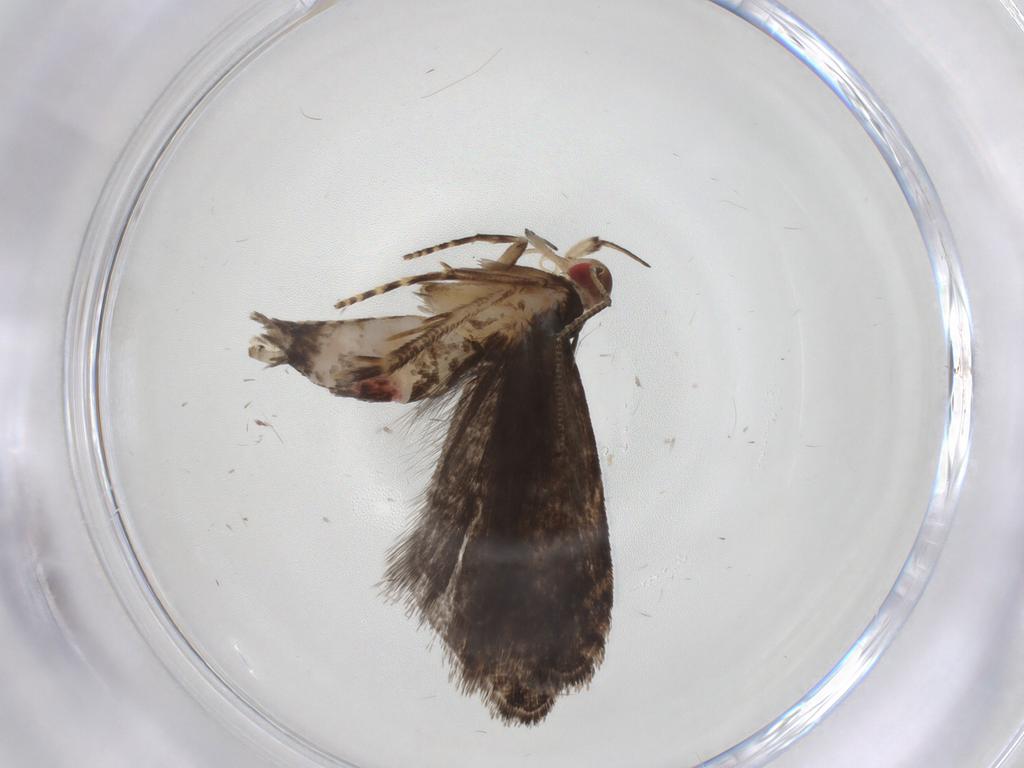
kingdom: Animalia
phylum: Arthropoda
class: Insecta
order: Lepidoptera
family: Gelechiidae
